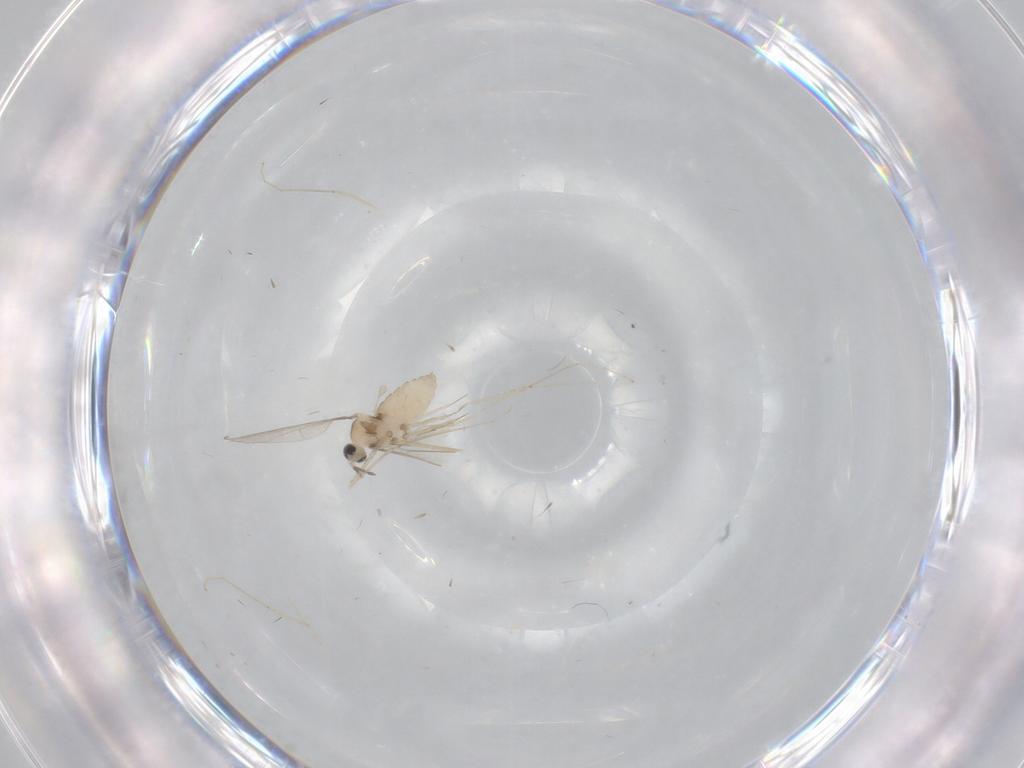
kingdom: Animalia
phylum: Arthropoda
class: Insecta
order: Diptera
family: Cecidomyiidae
